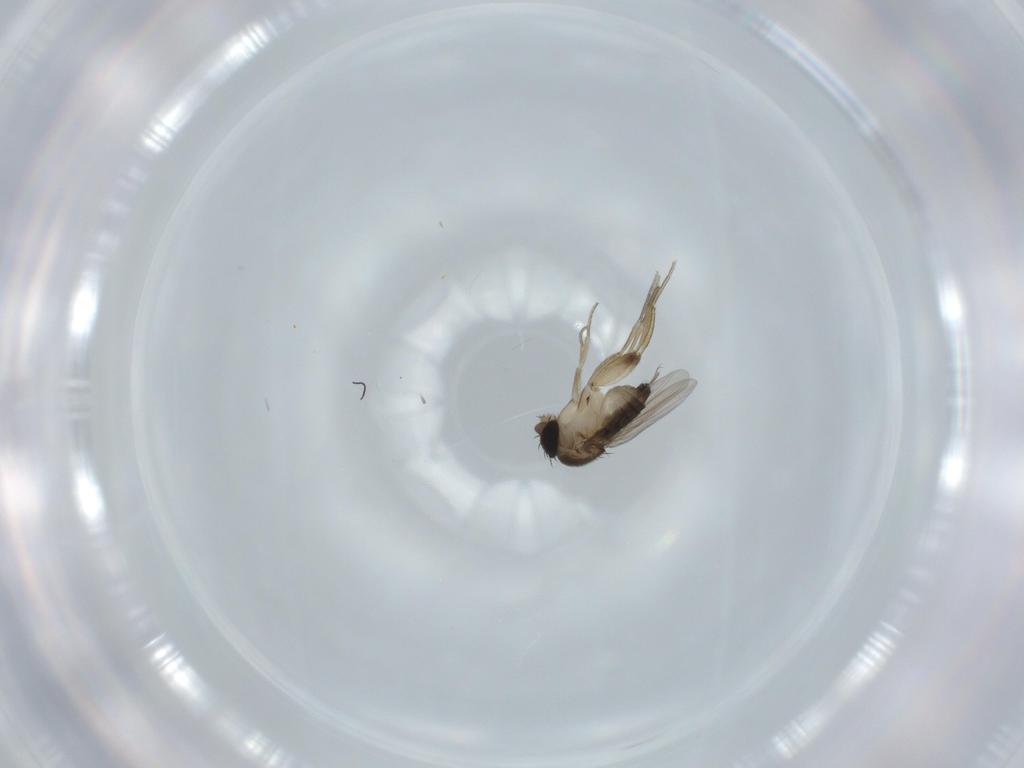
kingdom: Animalia
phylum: Arthropoda
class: Insecta
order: Diptera
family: Phoridae
